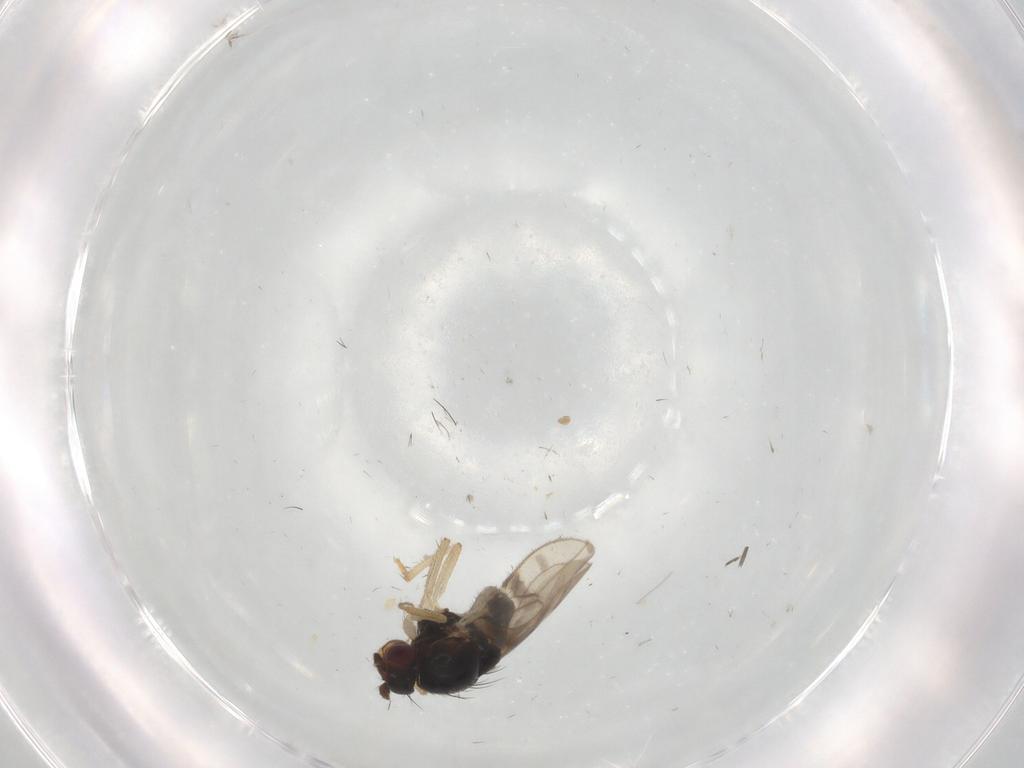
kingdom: Animalia
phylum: Arthropoda
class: Insecta
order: Diptera
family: Sphaeroceridae
